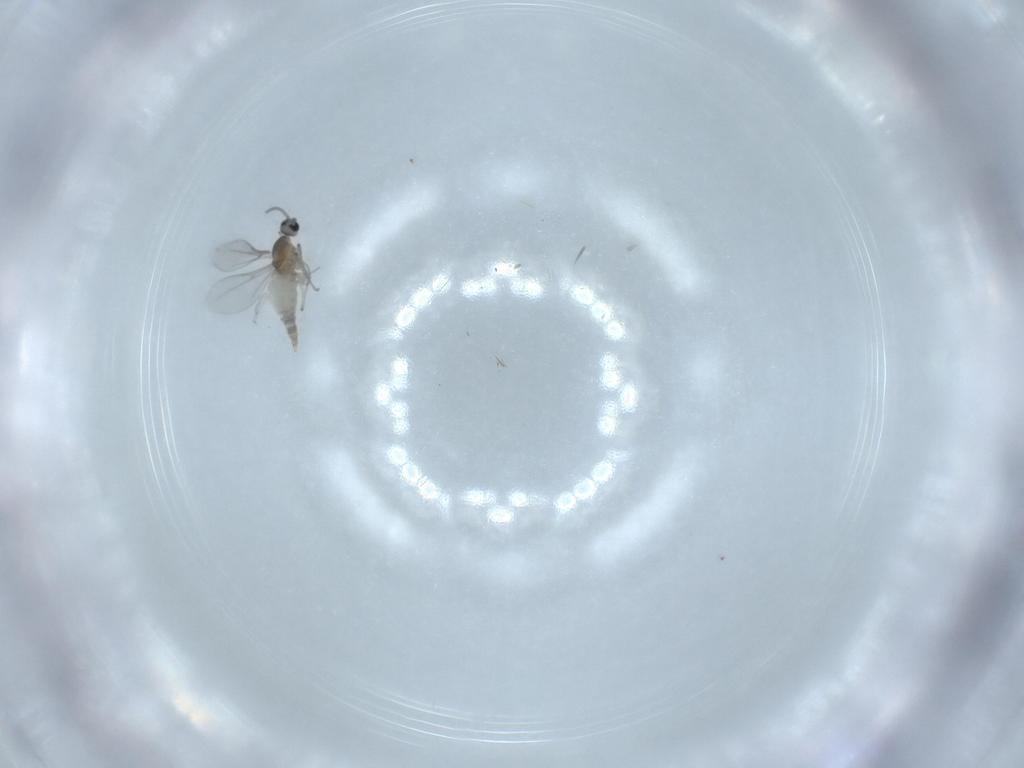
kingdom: Animalia
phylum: Arthropoda
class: Insecta
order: Diptera
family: Cecidomyiidae
